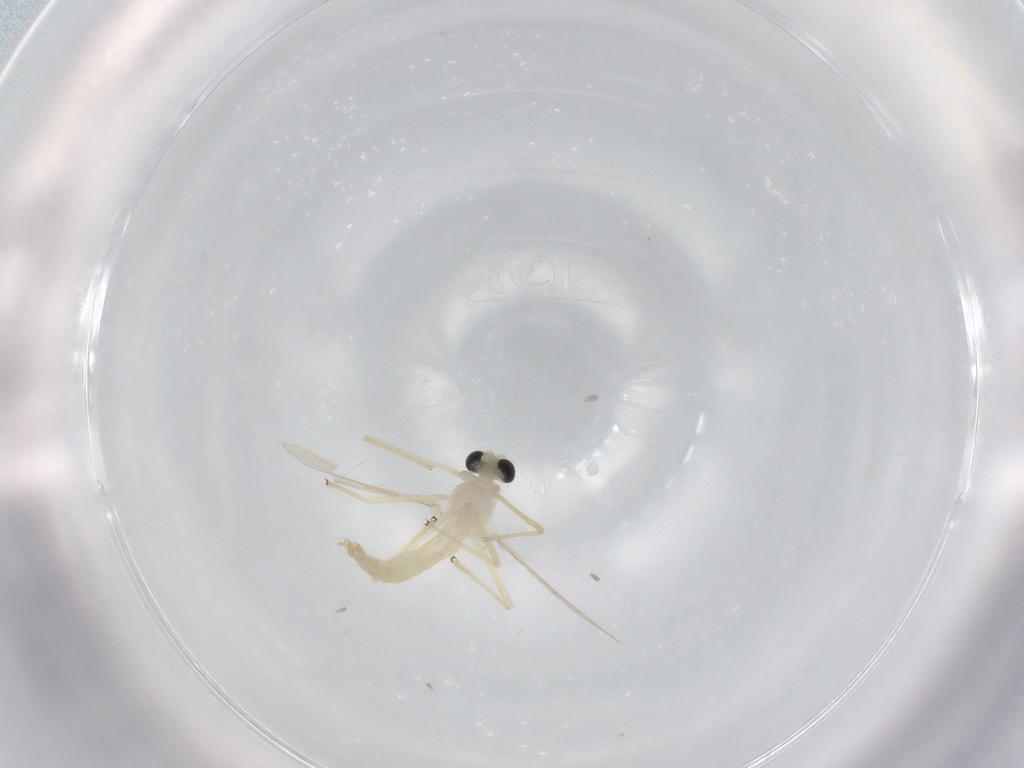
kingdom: Animalia
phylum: Arthropoda
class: Insecta
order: Diptera
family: Chironomidae
